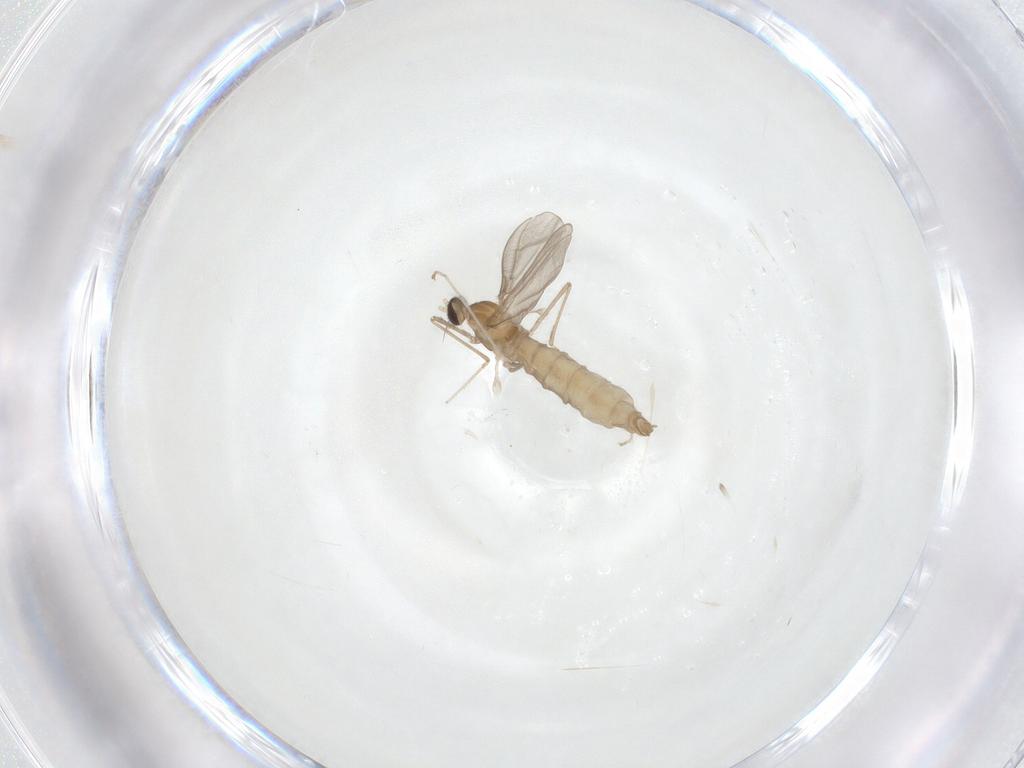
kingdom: Animalia
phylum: Arthropoda
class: Insecta
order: Diptera
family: Cecidomyiidae
